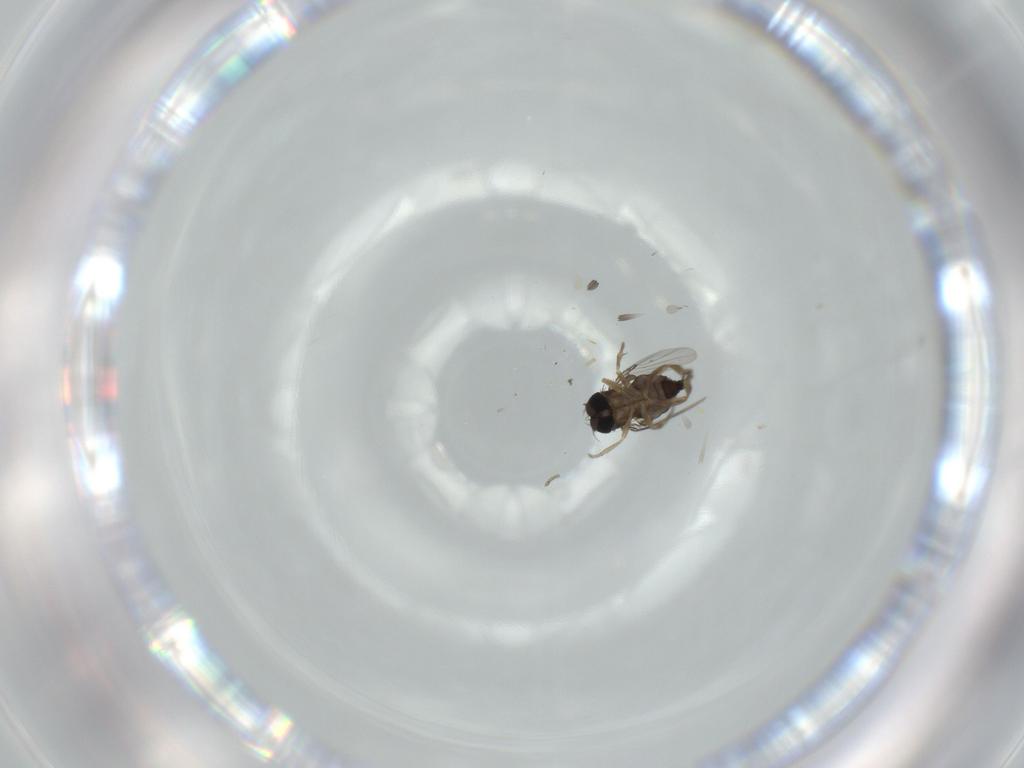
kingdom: Animalia
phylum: Arthropoda
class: Insecta
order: Diptera
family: Phoridae
